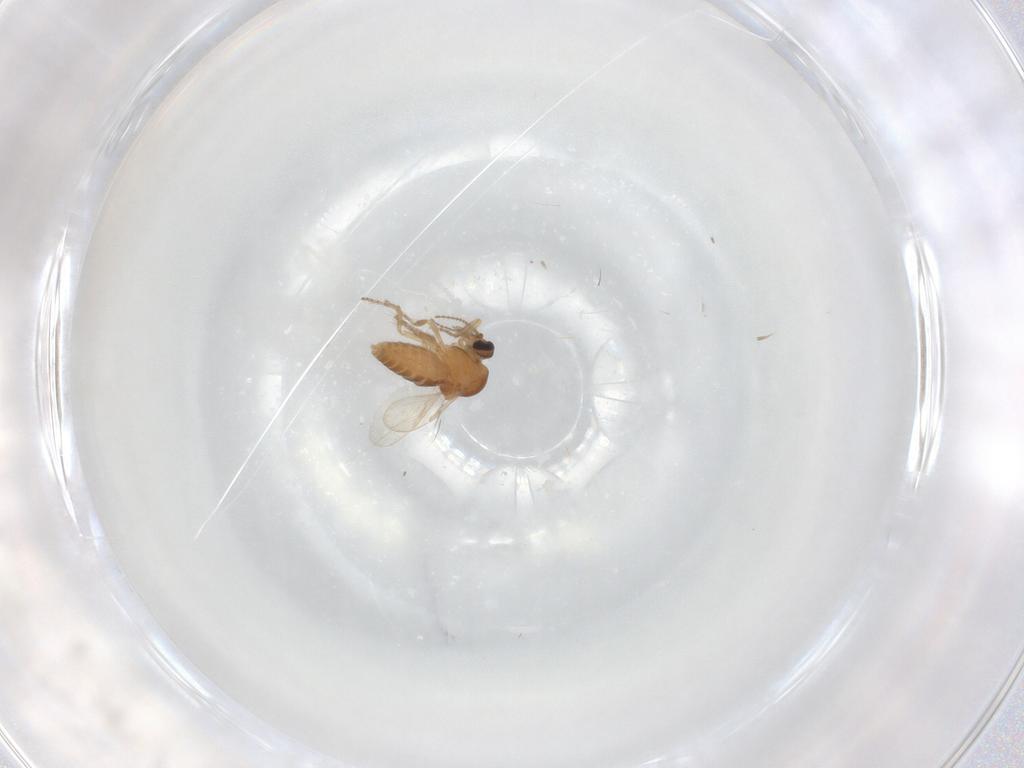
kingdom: Animalia
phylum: Arthropoda
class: Insecta
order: Diptera
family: Ceratopogonidae
